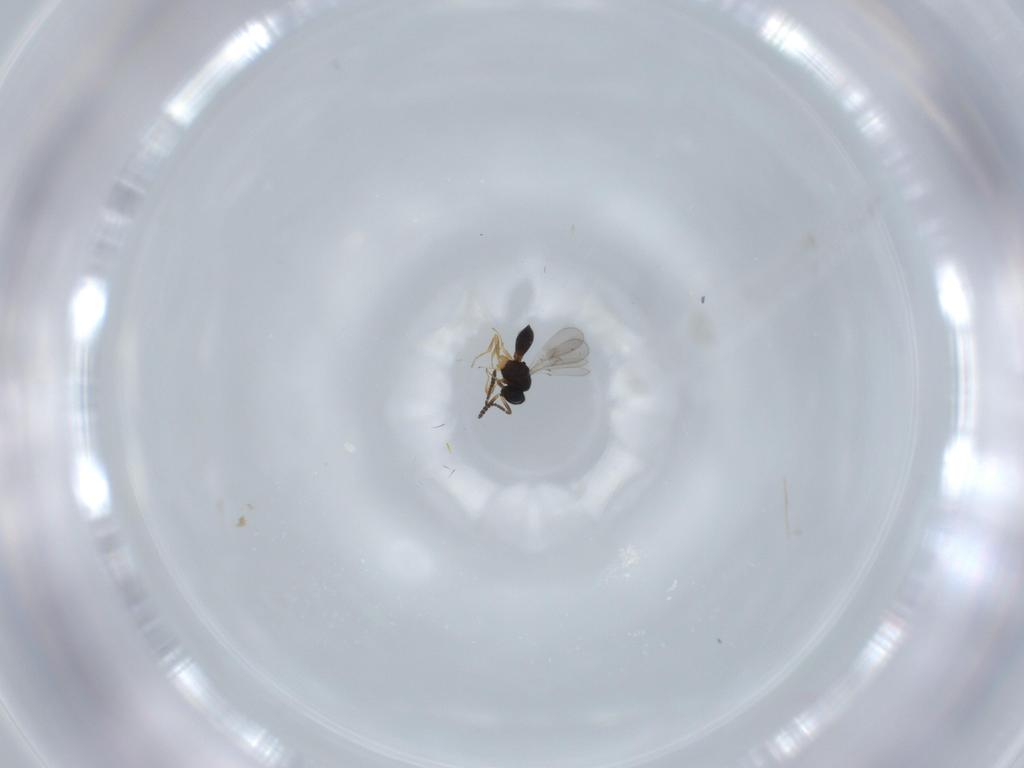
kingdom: Animalia
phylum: Arthropoda
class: Insecta
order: Hymenoptera
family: Scelionidae
